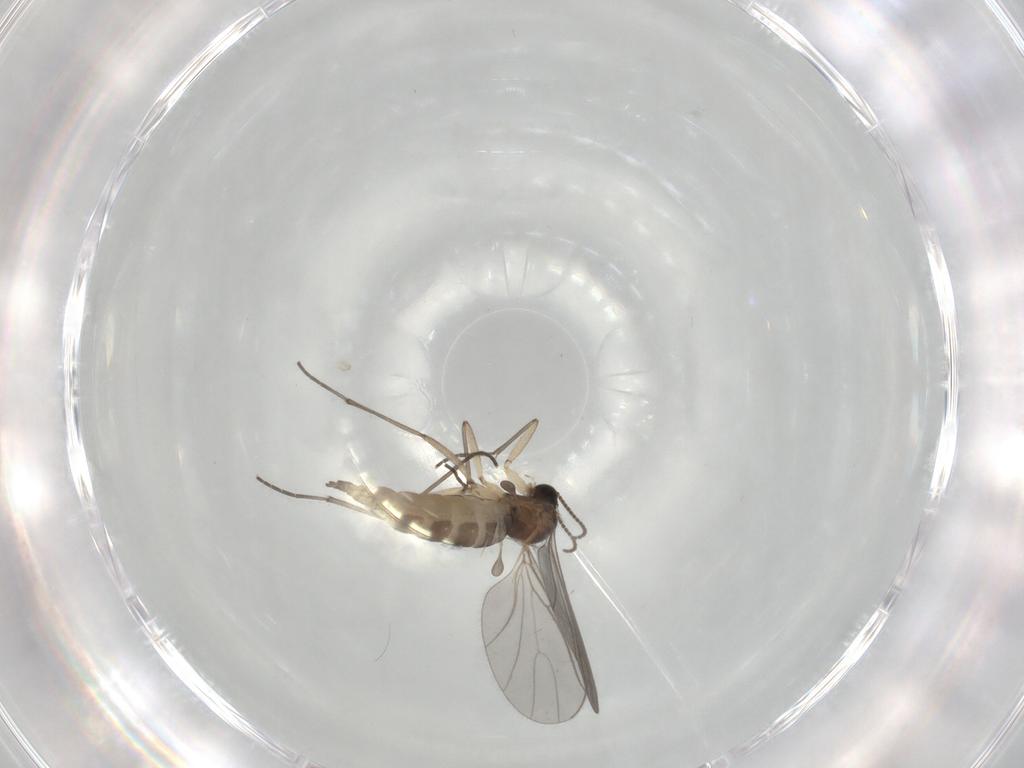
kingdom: Animalia
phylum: Arthropoda
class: Insecta
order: Diptera
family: Sciaridae
